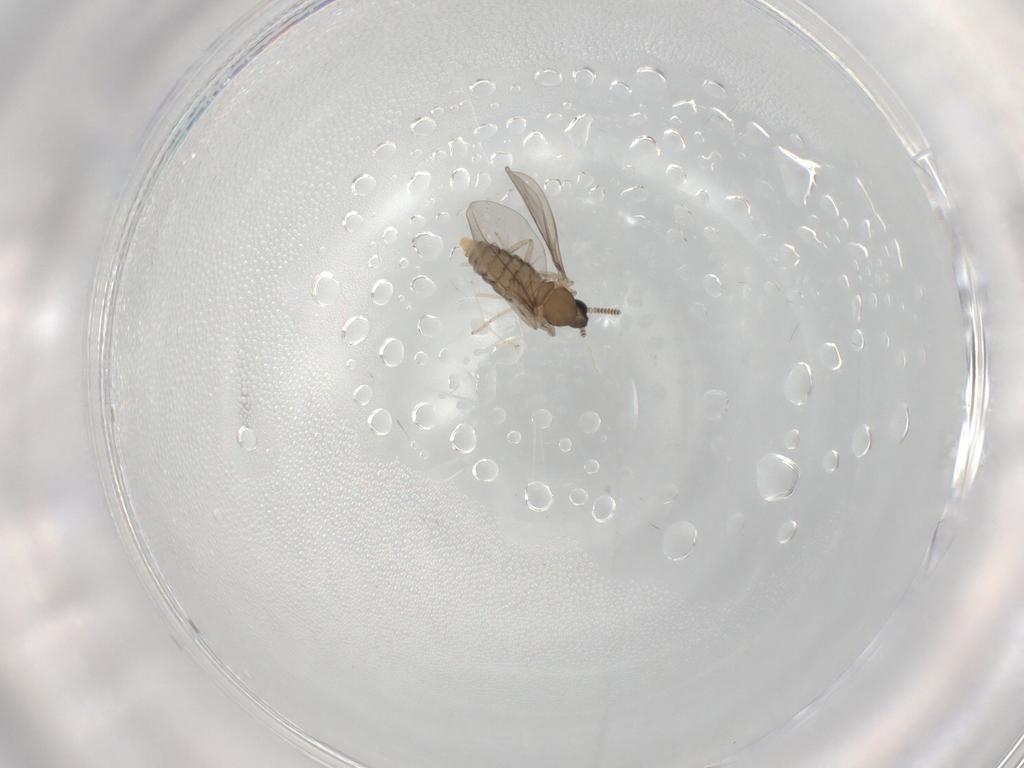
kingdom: Animalia
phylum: Arthropoda
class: Insecta
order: Diptera
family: Cecidomyiidae
